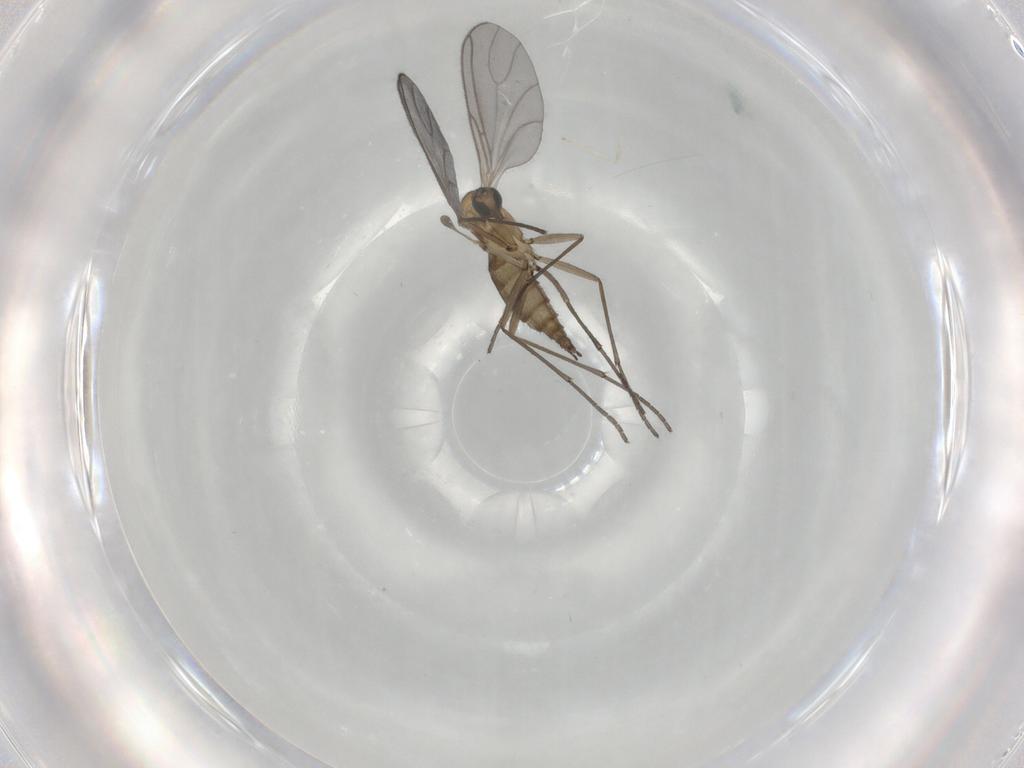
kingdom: Animalia
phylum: Arthropoda
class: Insecta
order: Diptera
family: Sciaridae
